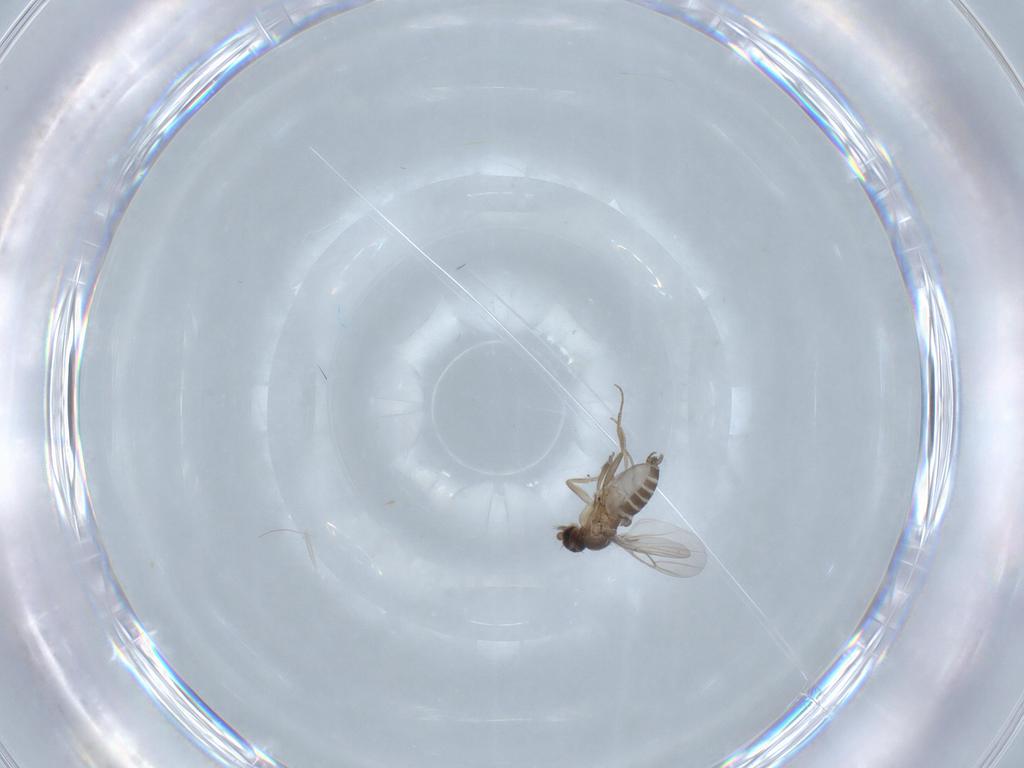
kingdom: Animalia
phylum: Arthropoda
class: Insecta
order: Diptera
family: Phoridae
